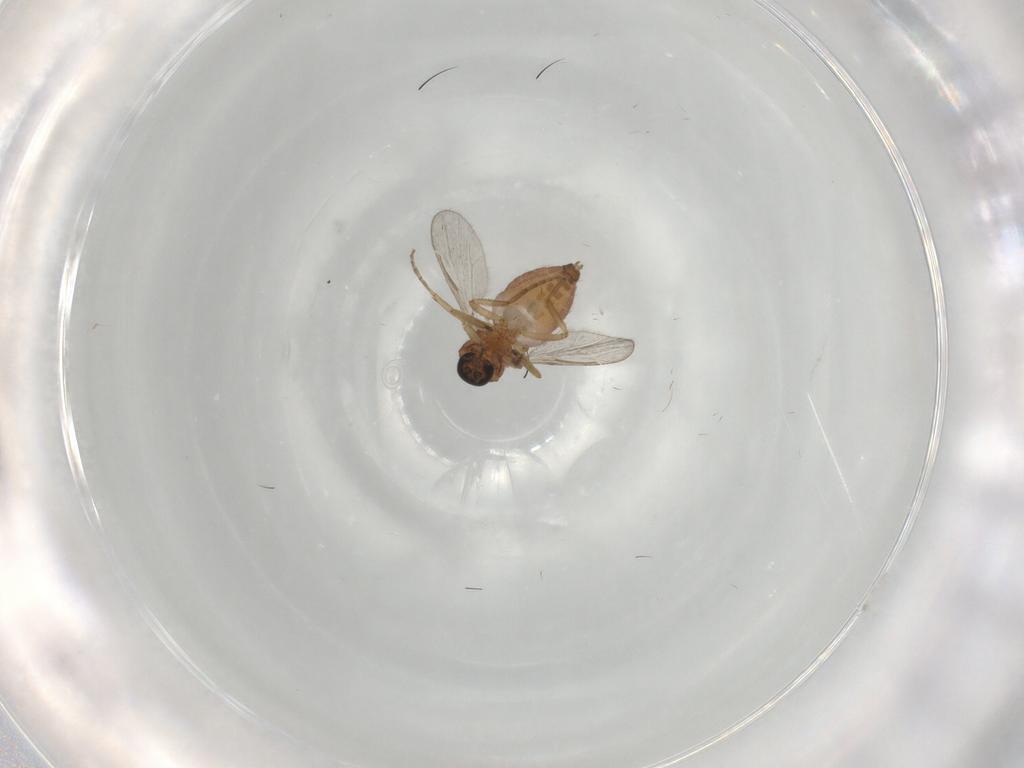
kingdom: Animalia
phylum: Arthropoda
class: Insecta
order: Diptera
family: Ceratopogonidae
